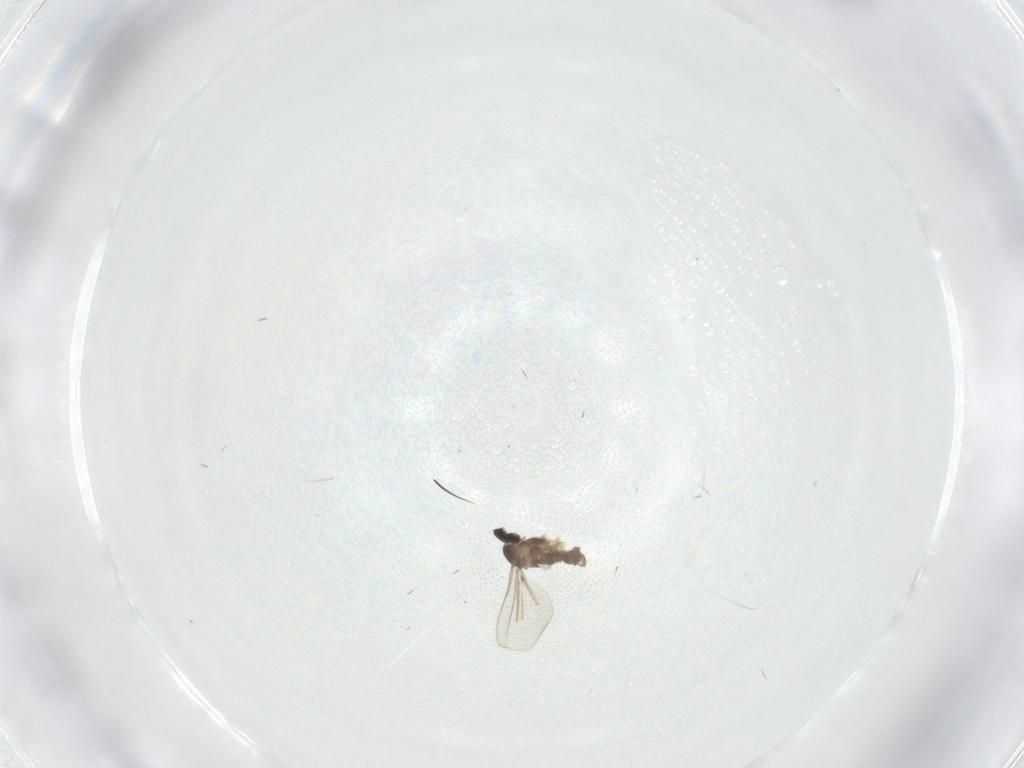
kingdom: Animalia
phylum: Arthropoda
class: Insecta
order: Diptera
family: Cecidomyiidae
